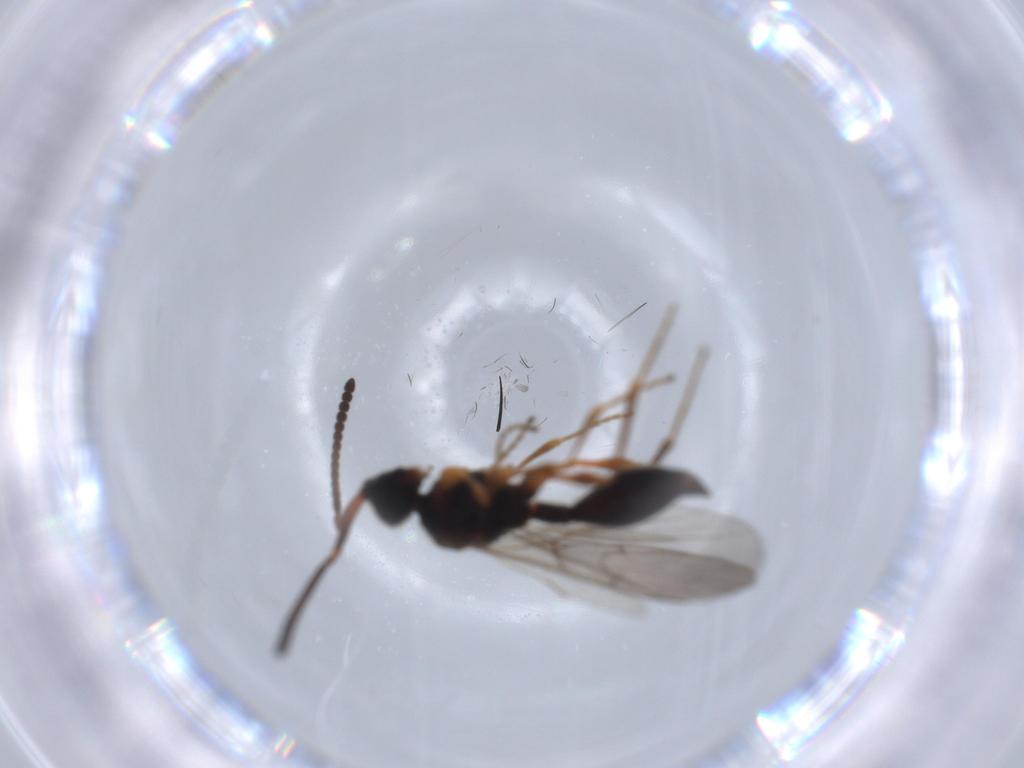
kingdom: Animalia
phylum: Arthropoda
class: Insecta
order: Hymenoptera
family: Diapriidae
